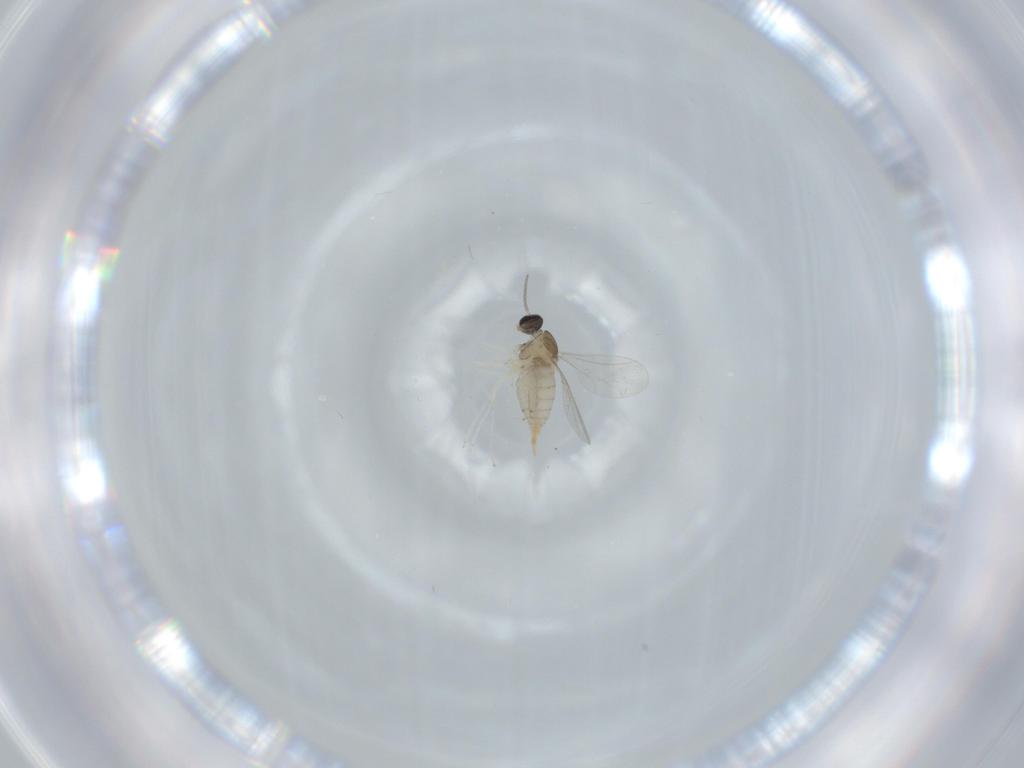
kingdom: Animalia
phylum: Arthropoda
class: Insecta
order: Diptera
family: Cecidomyiidae
